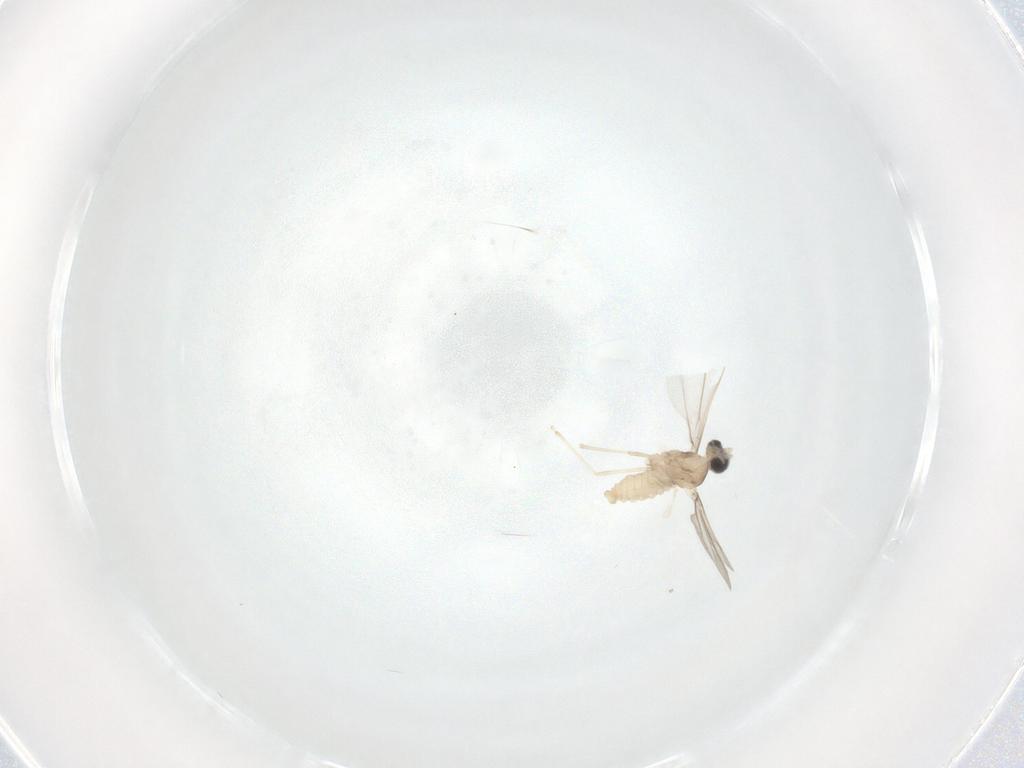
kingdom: Animalia
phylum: Arthropoda
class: Insecta
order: Diptera
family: Cecidomyiidae
